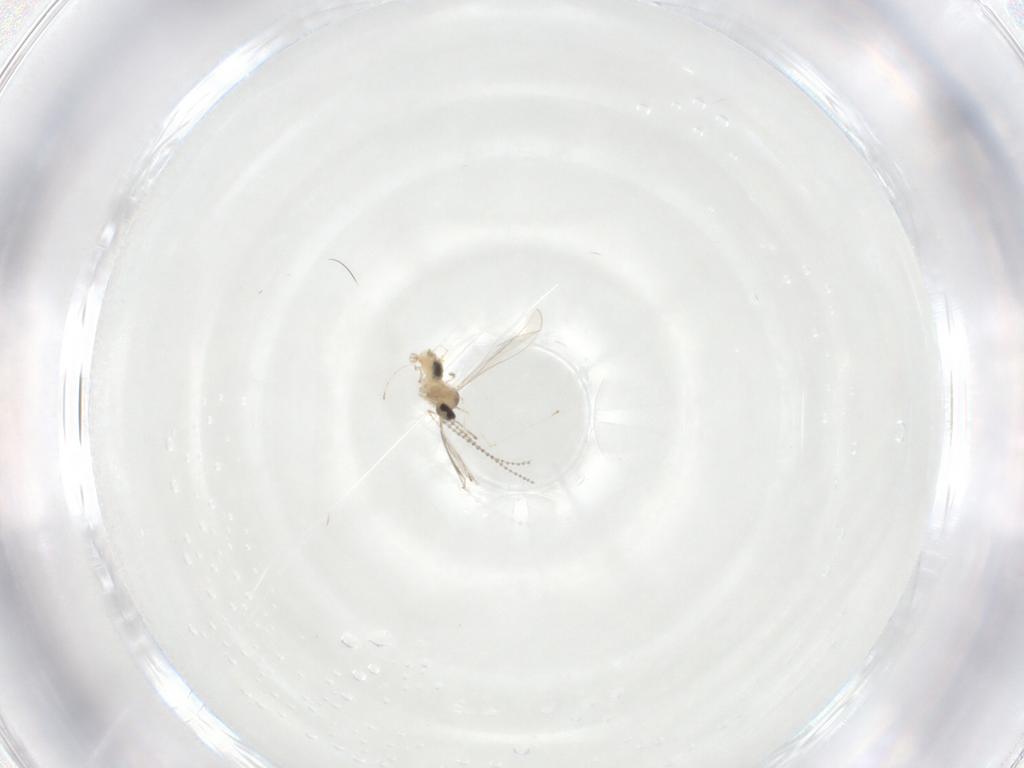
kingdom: Animalia
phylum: Arthropoda
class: Insecta
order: Diptera
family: Cecidomyiidae
